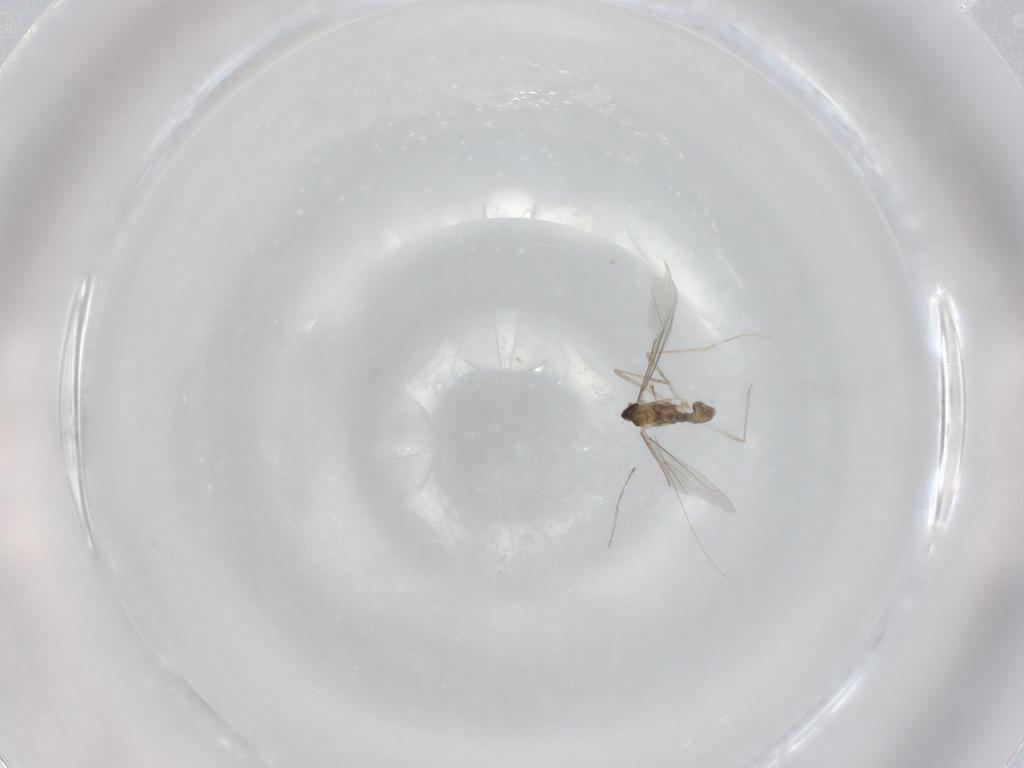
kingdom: Animalia
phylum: Arthropoda
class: Insecta
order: Diptera
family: Cecidomyiidae
